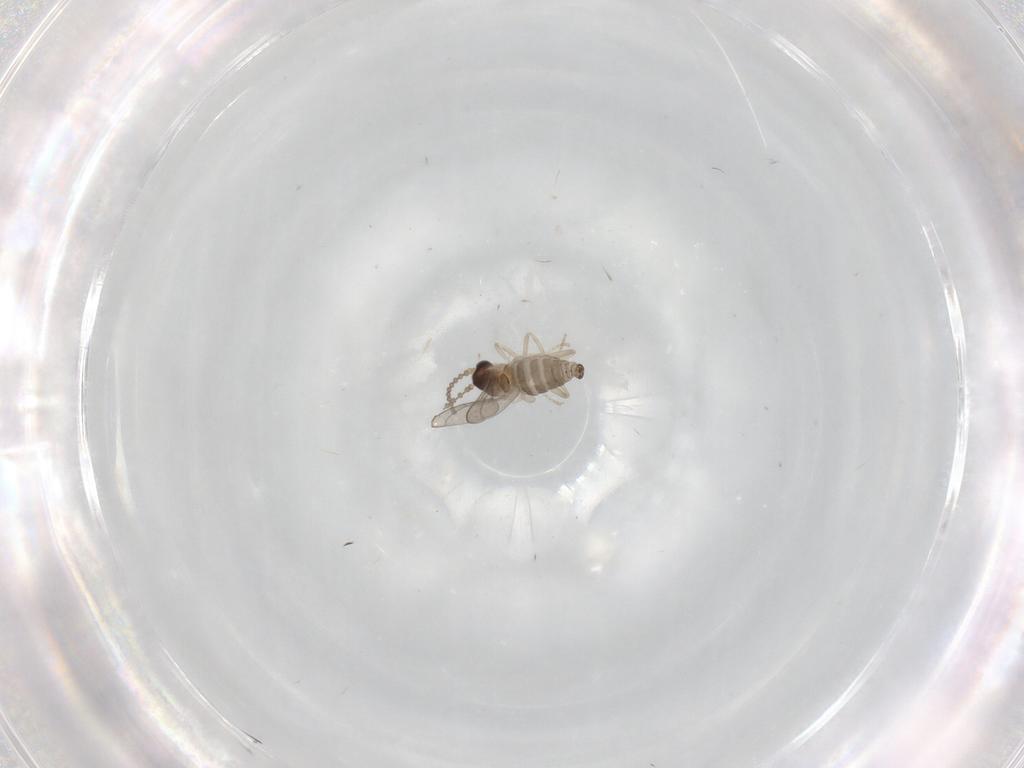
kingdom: Animalia
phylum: Arthropoda
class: Insecta
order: Diptera
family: Cecidomyiidae
